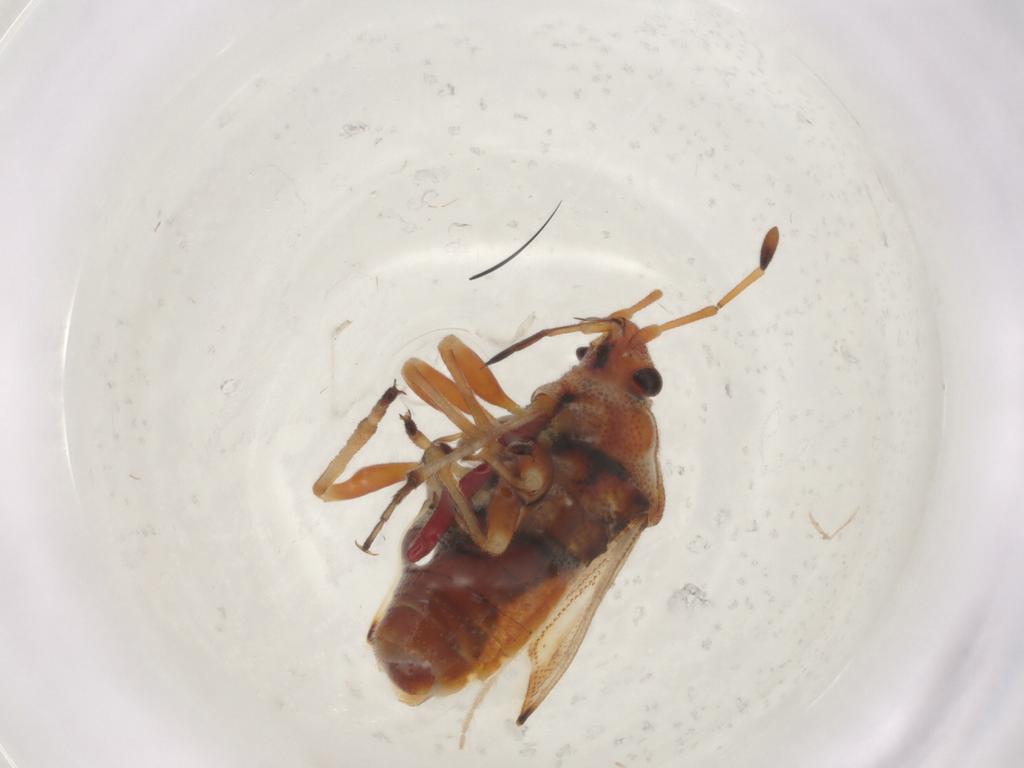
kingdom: Animalia
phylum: Arthropoda
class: Insecta
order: Hemiptera
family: Miridae
